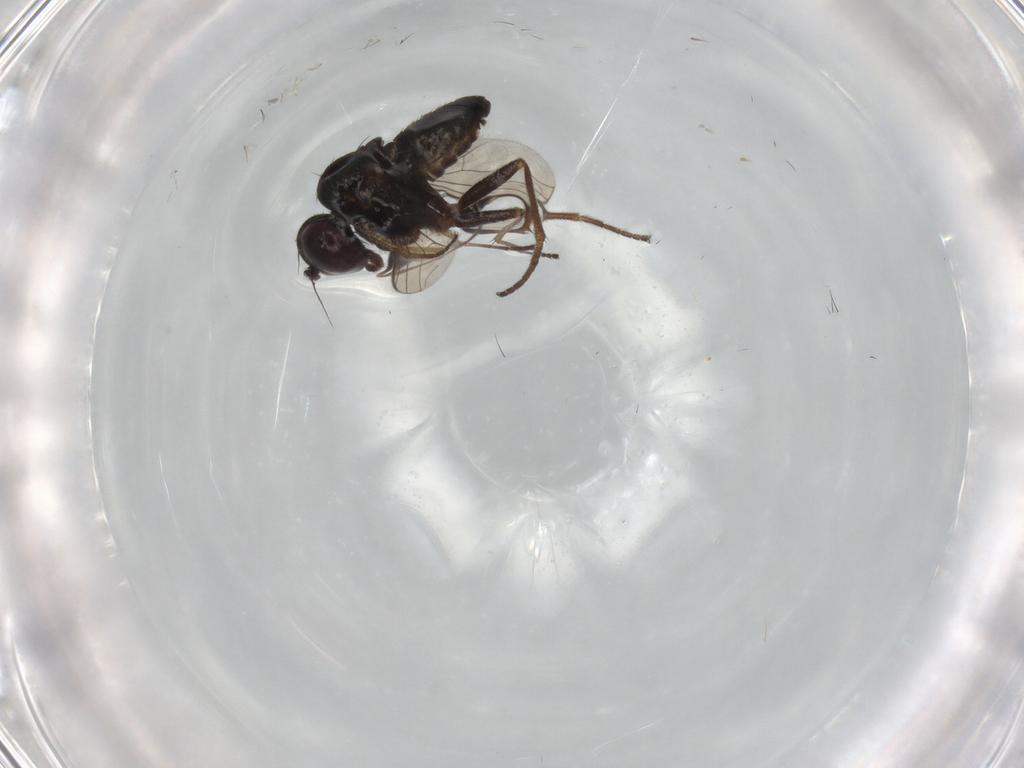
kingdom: Animalia
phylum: Arthropoda
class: Insecta
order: Diptera
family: Dolichopodidae
